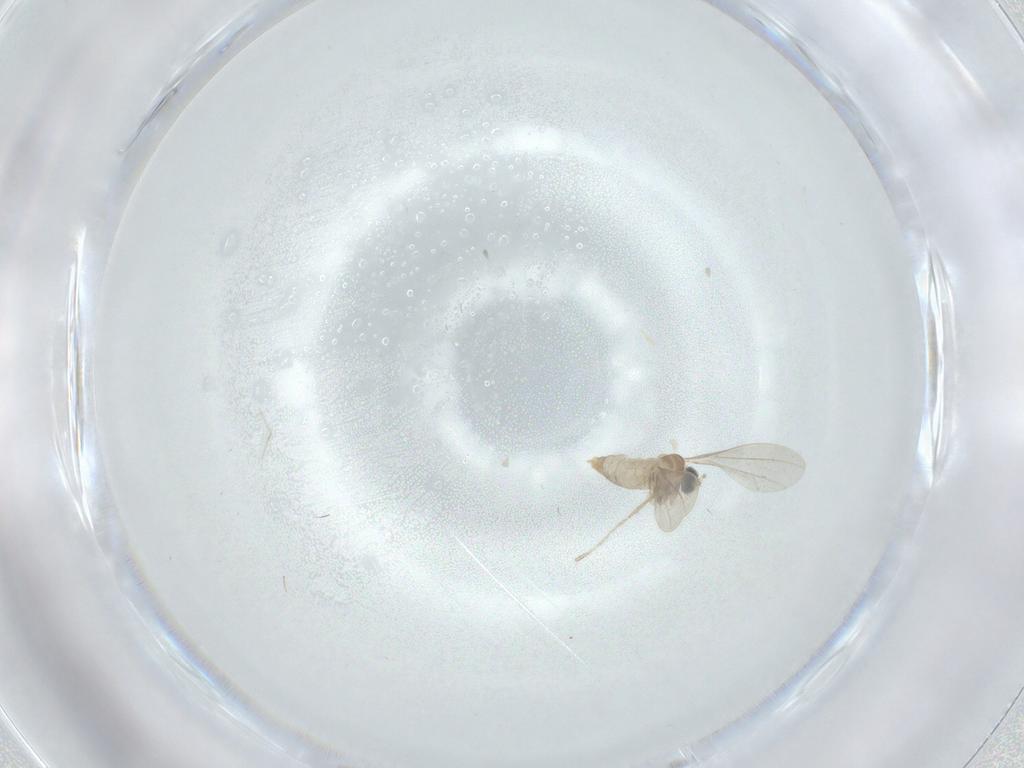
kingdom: Animalia
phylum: Arthropoda
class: Insecta
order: Diptera
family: Cecidomyiidae
